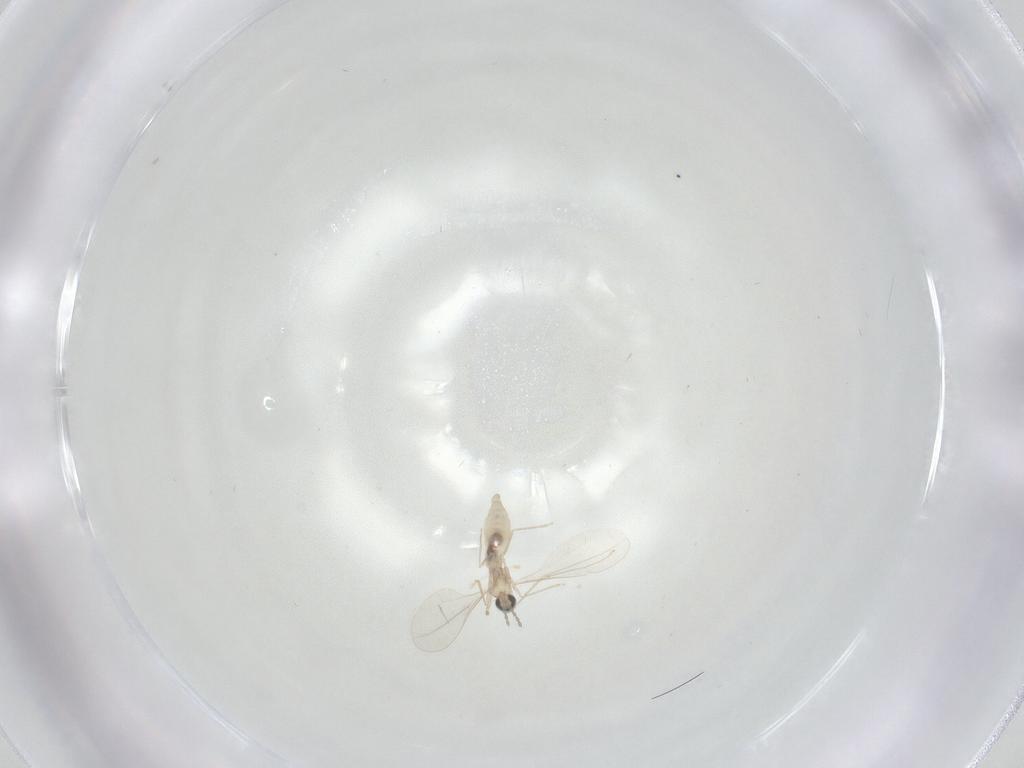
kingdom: Animalia
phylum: Arthropoda
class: Insecta
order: Diptera
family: Cecidomyiidae
